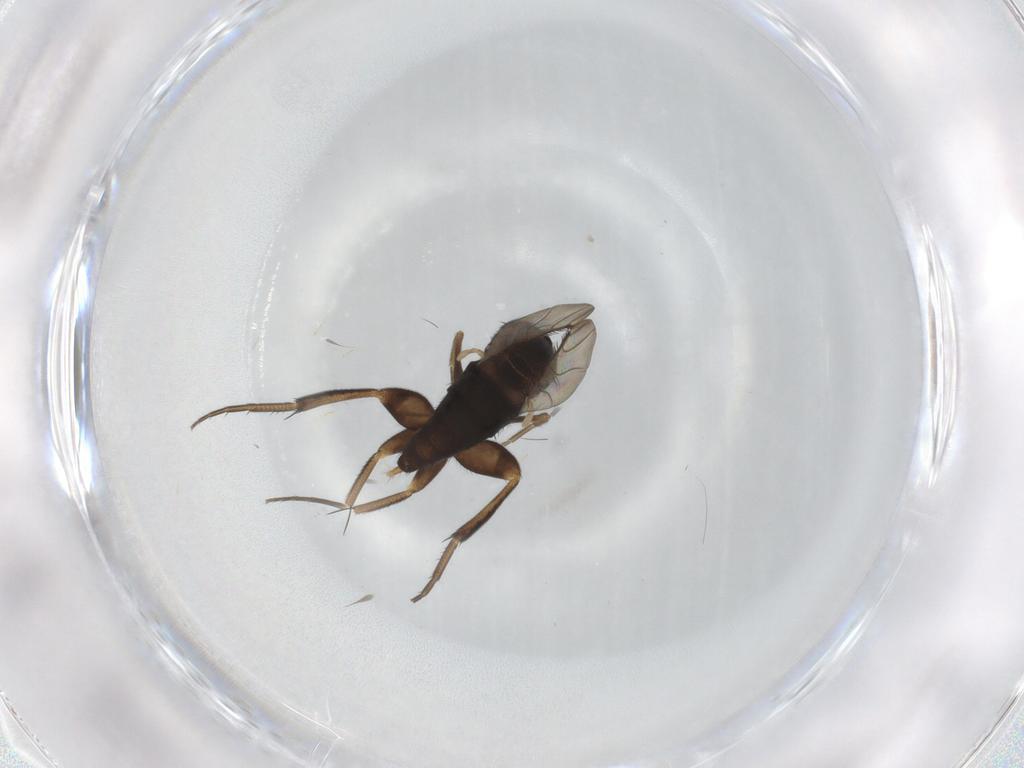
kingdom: Animalia
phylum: Arthropoda
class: Insecta
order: Diptera
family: Phoridae
